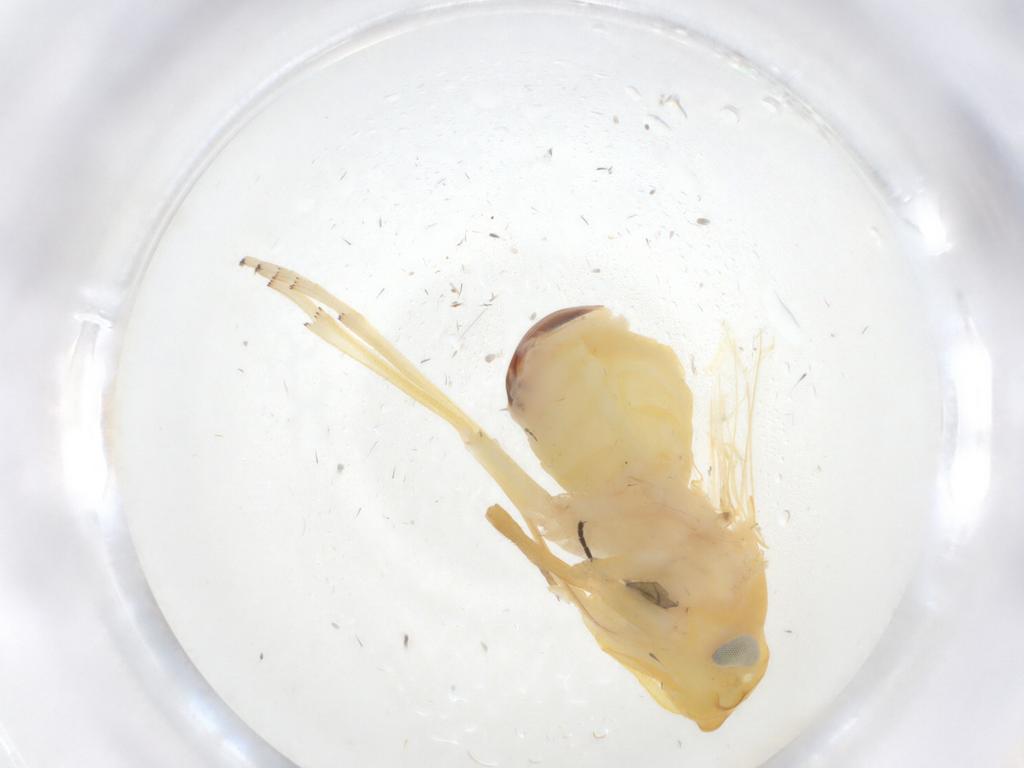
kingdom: Animalia
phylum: Arthropoda
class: Insecta
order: Hemiptera
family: Cixiidae
